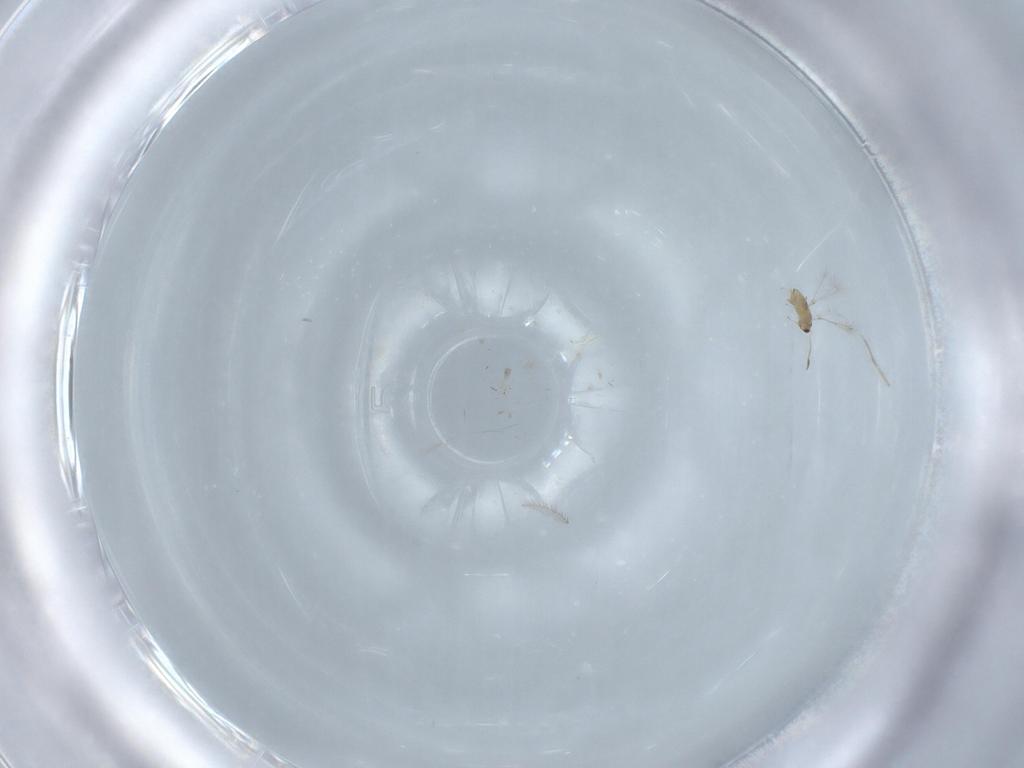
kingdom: Animalia
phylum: Arthropoda
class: Insecta
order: Hymenoptera
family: Mymaridae
